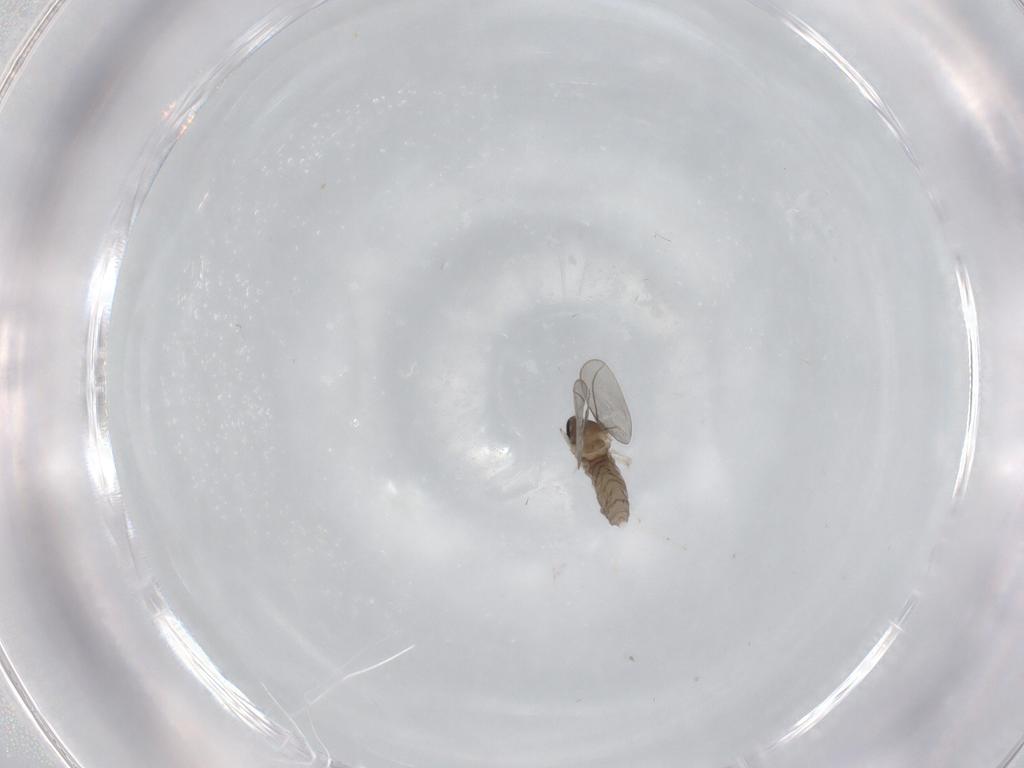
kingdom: Animalia
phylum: Arthropoda
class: Insecta
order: Diptera
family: Cecidomyiidae
